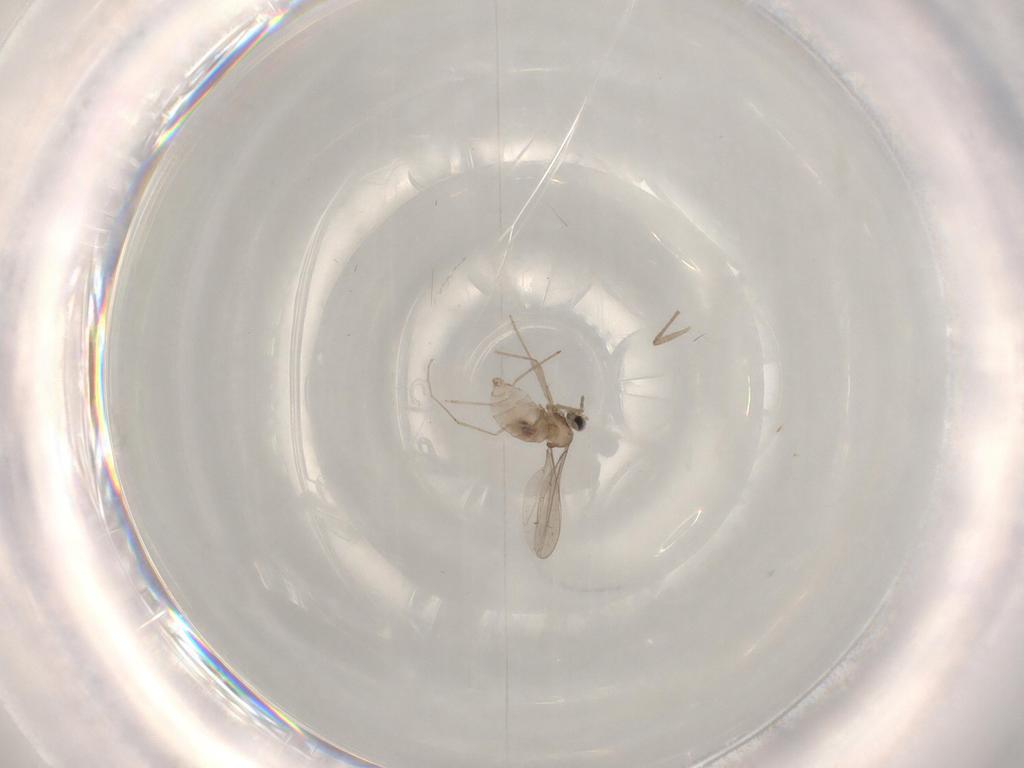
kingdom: Animalia
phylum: Arthropoda
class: Insecta
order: Diptera
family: Chironomidae
